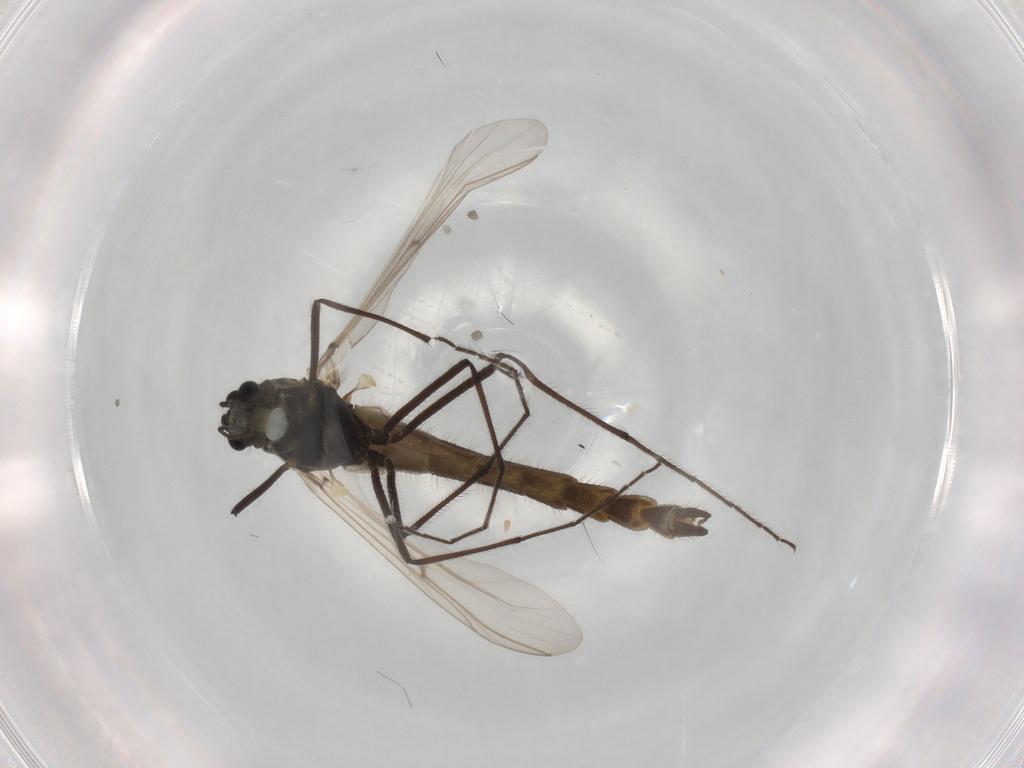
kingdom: Animalia
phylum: Arthropoda
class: Insecta
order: Diptera
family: Chironomidae
